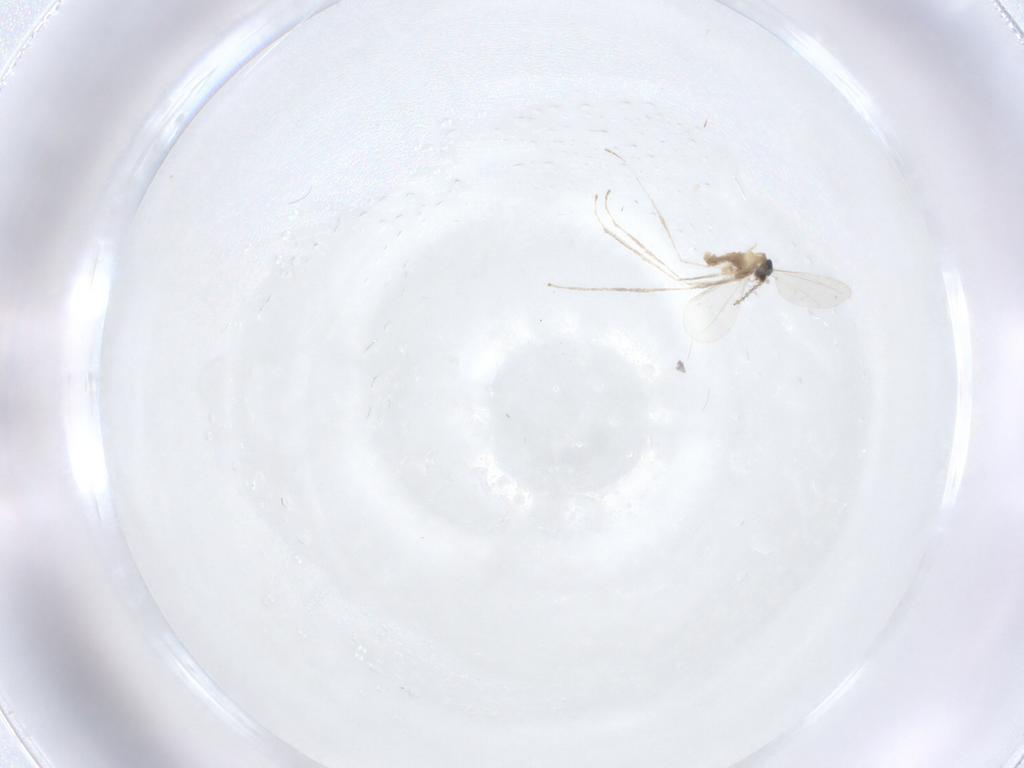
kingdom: Animalia
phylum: Arthropoda
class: Insecta
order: Diptera
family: Cecidomyiidae
